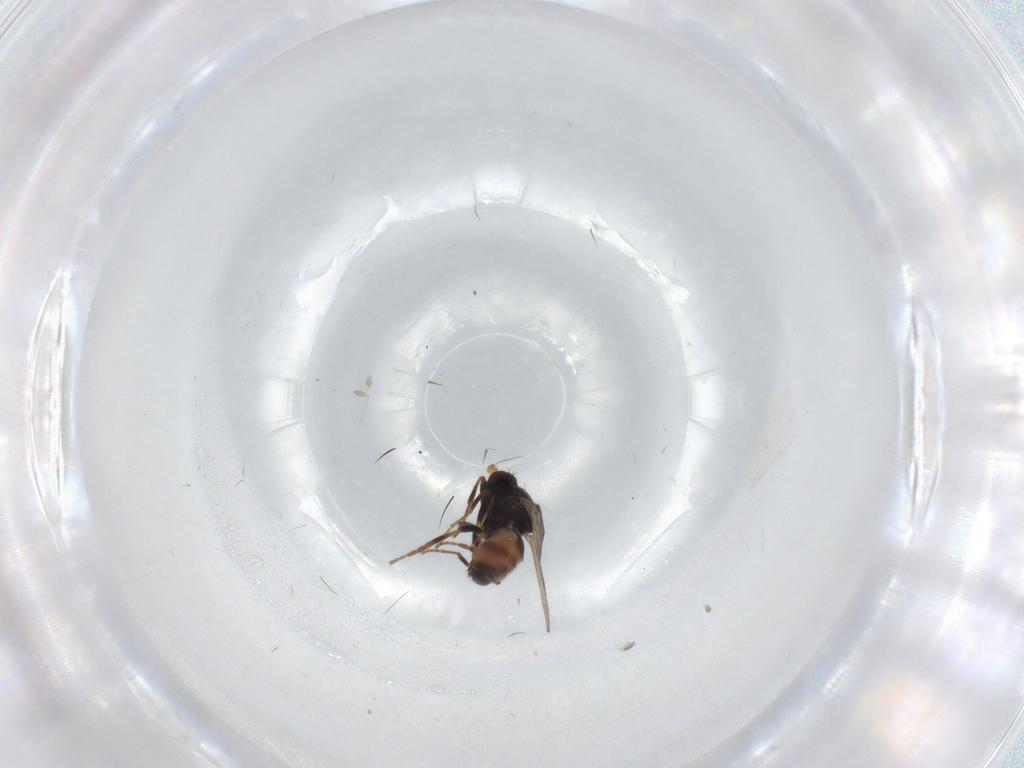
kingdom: Animalia
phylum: Arthropoda
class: Insecta
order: Diptera
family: Sphaeroceridae
